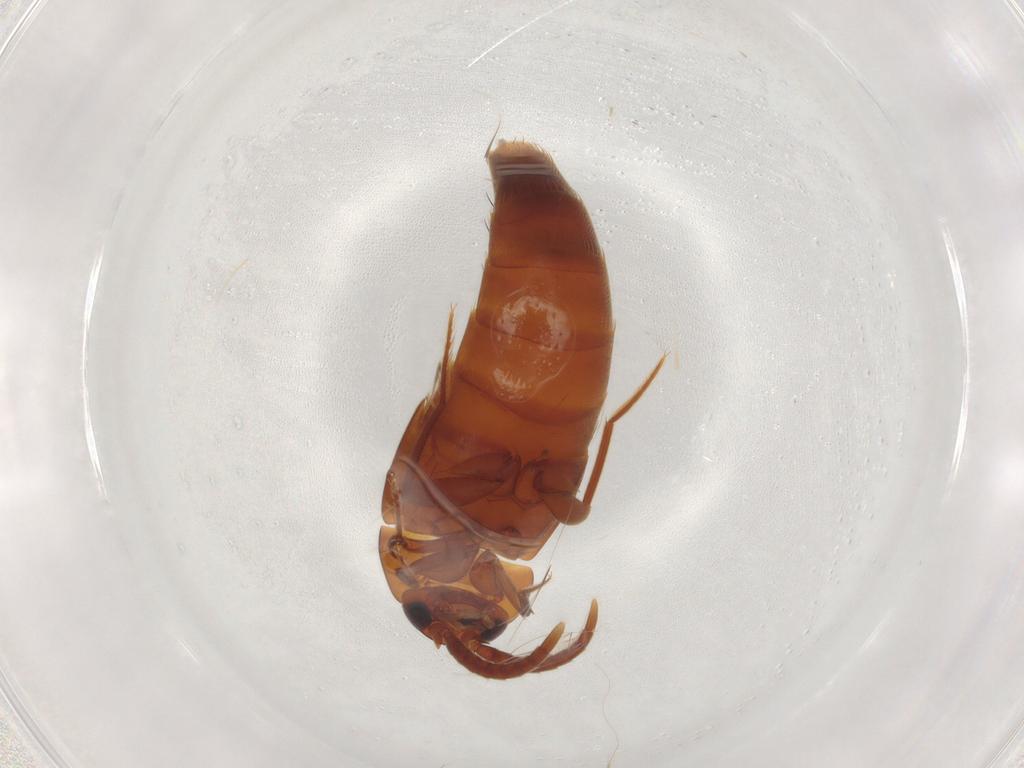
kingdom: Animalia
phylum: Arthropoda
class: Insecta
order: Coleoptera
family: Staphylinidae
